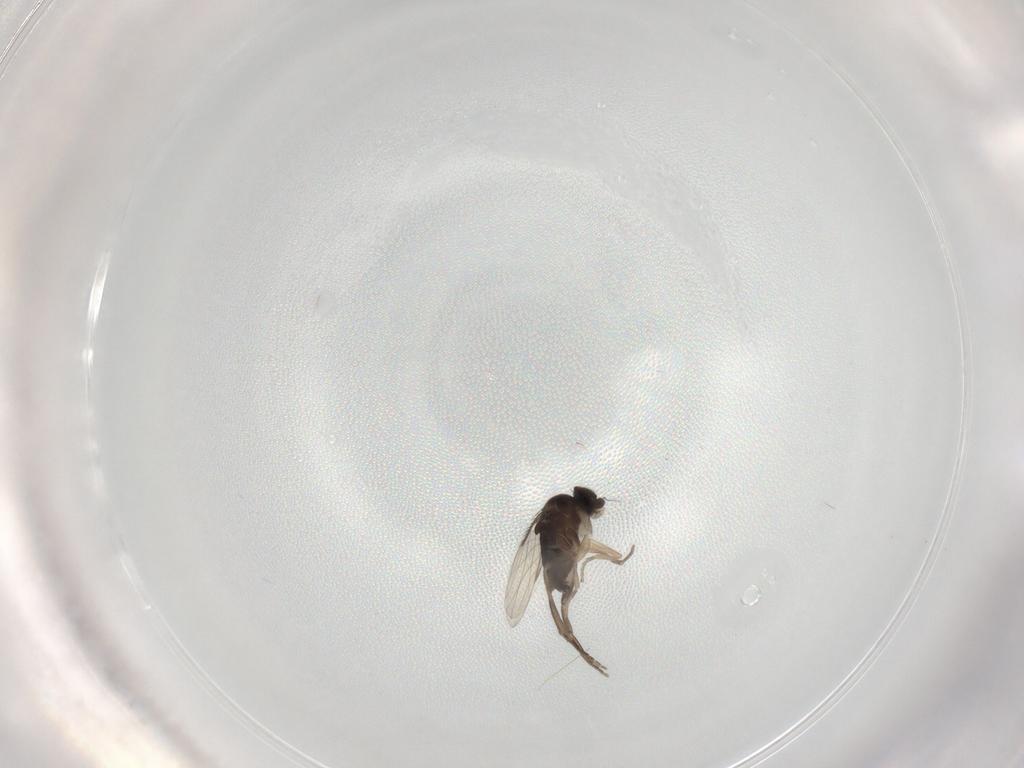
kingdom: Animalia
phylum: Arthropoda
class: Insecta
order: Diptera
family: Phoridae
